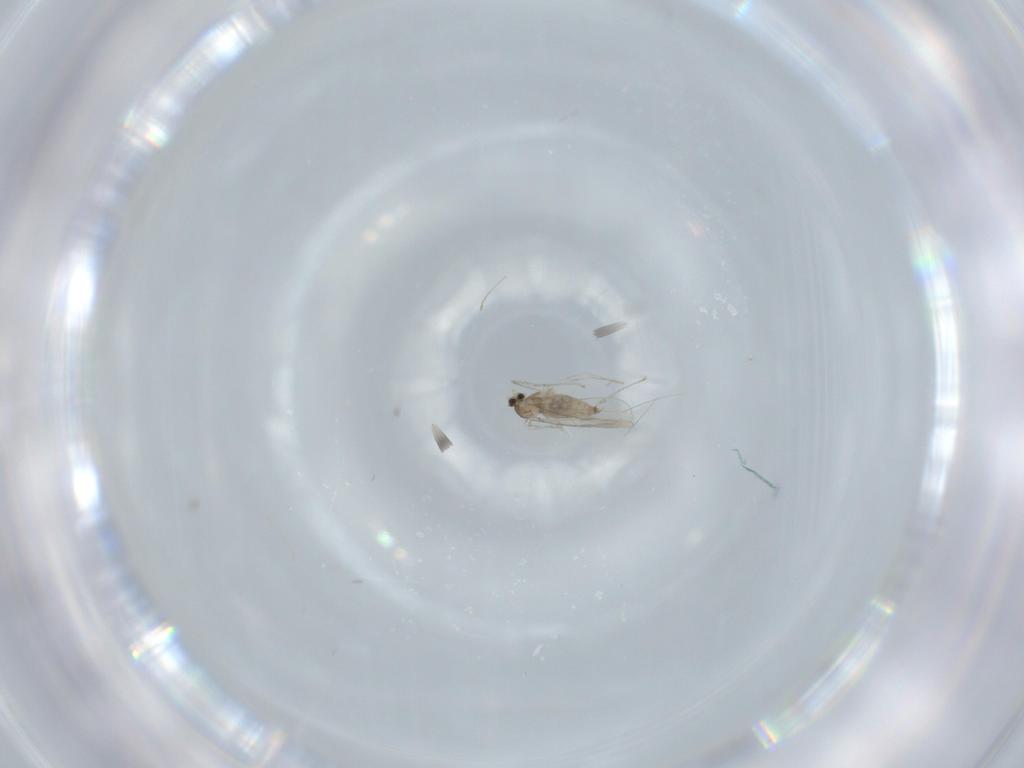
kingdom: Animalia
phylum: Arthropoda
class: Insecta
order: Diptera
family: Cecidomyiidae
